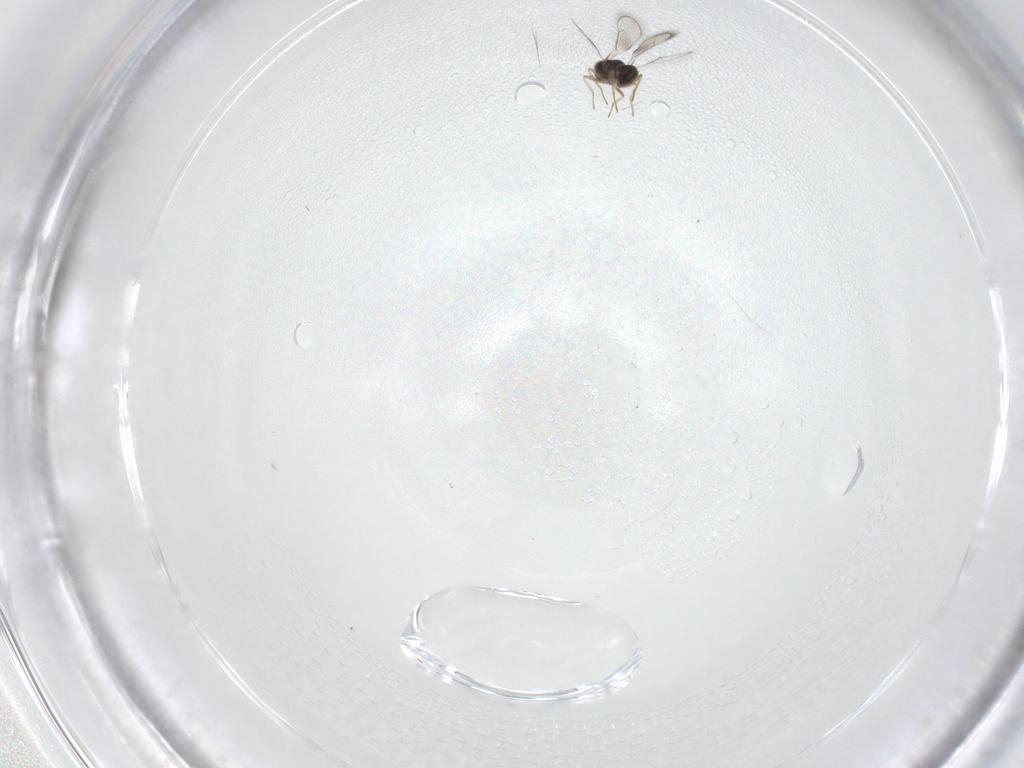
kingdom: Animalia
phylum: Arthropoda
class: Insecta
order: Hymenoptera
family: Eulophidae
